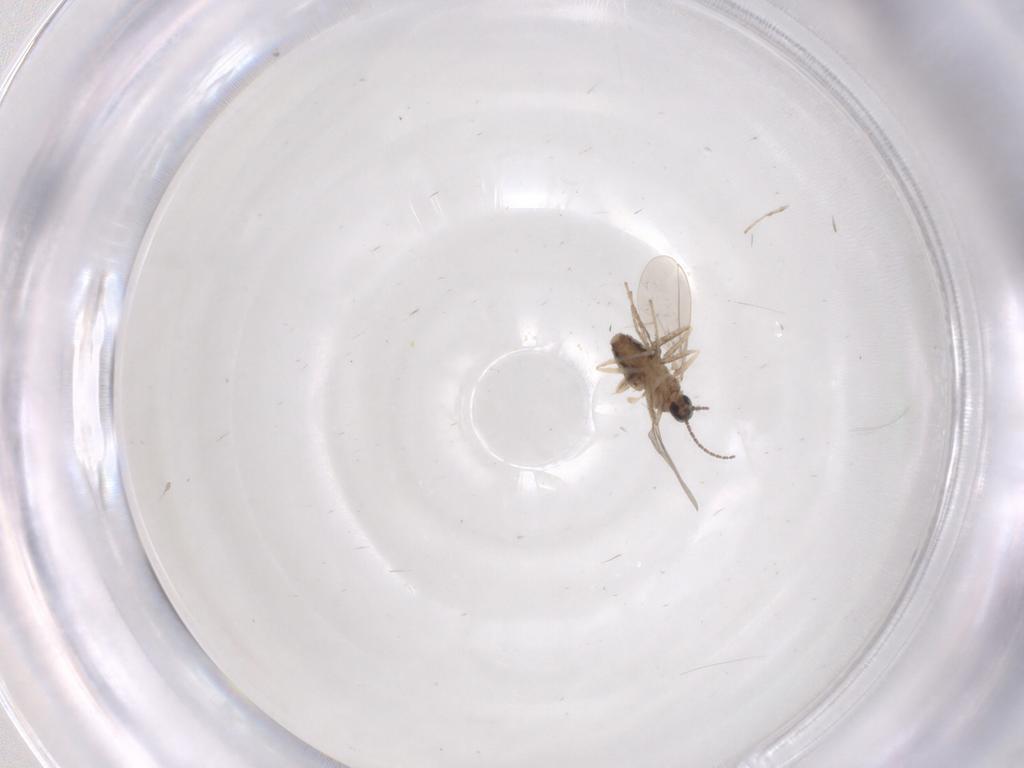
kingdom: Animalia
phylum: Arthropoda
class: Insecta
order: Diptera
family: Cecidomyiidae
